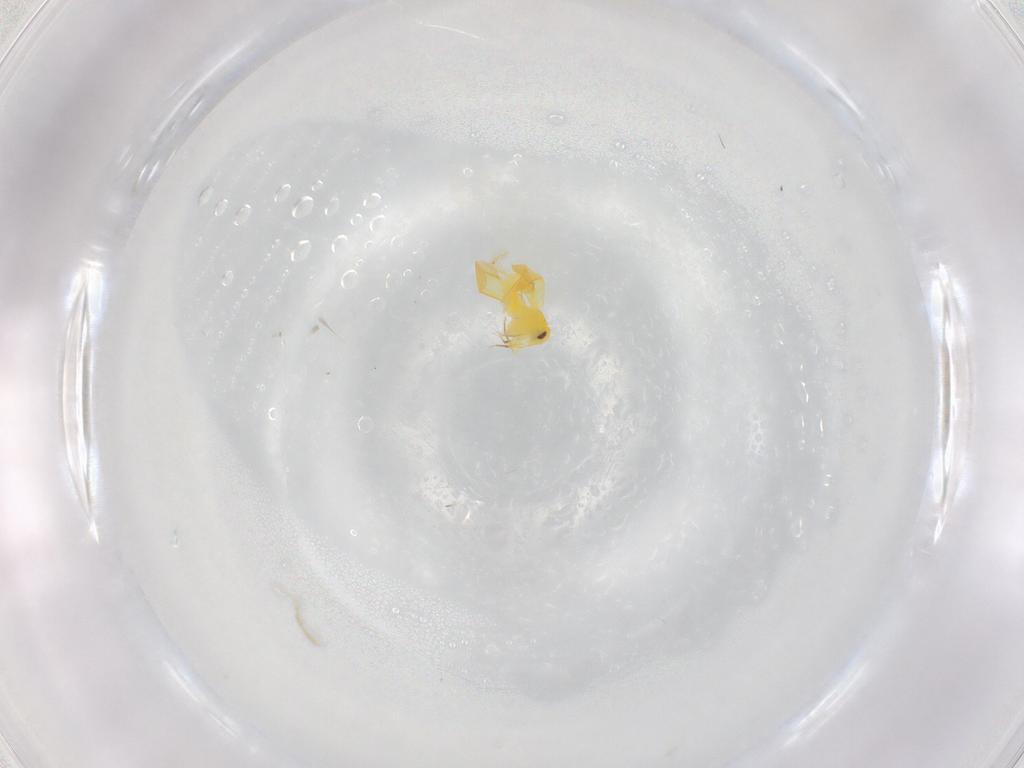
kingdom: Animalia
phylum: Arthropoda
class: Insecta
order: Hemiptera
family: Aleyrodidae
